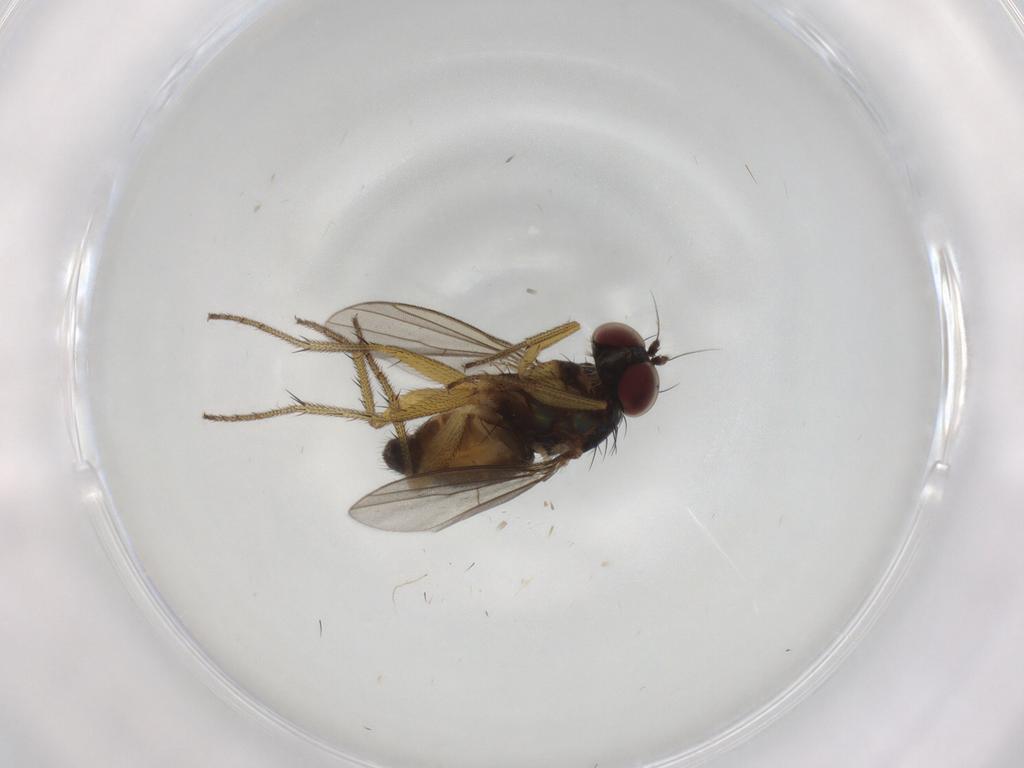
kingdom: Animalia
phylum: Arthropoda
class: Insecta
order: Diptera
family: Dolichopodidae
